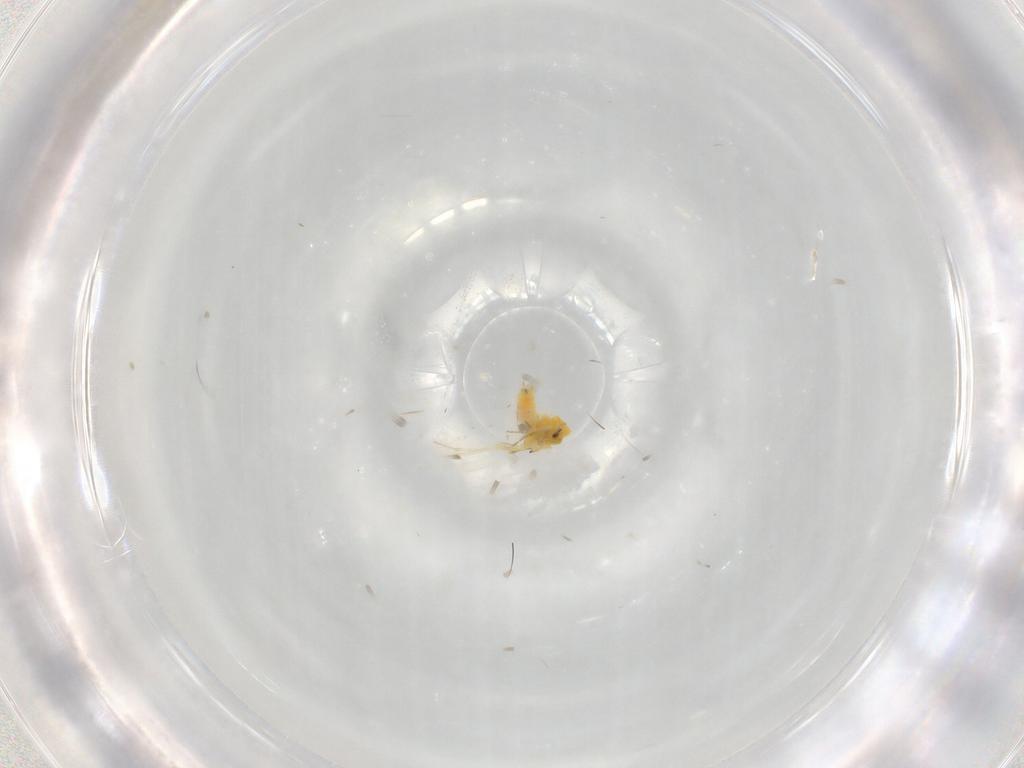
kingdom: Animalia
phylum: Arthropoda
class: Insecta
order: Hemiptera
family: Aleyrodidae
